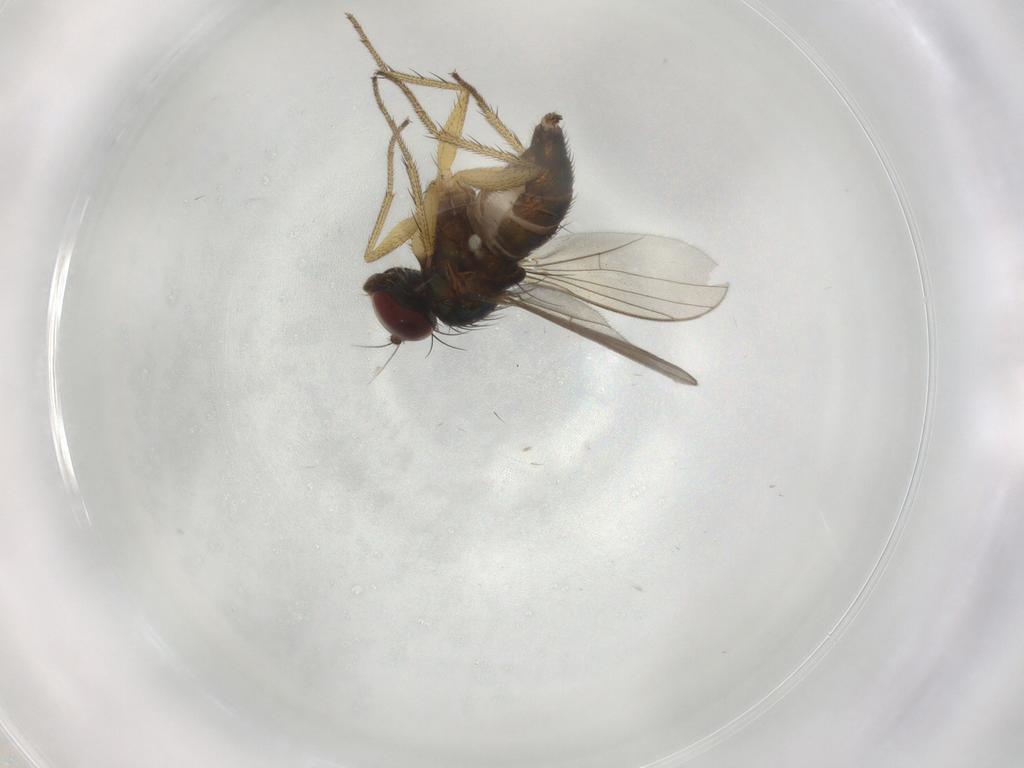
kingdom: Animalia
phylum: Arthropoda
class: Insecta
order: Diptera
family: Dolichopodidae
